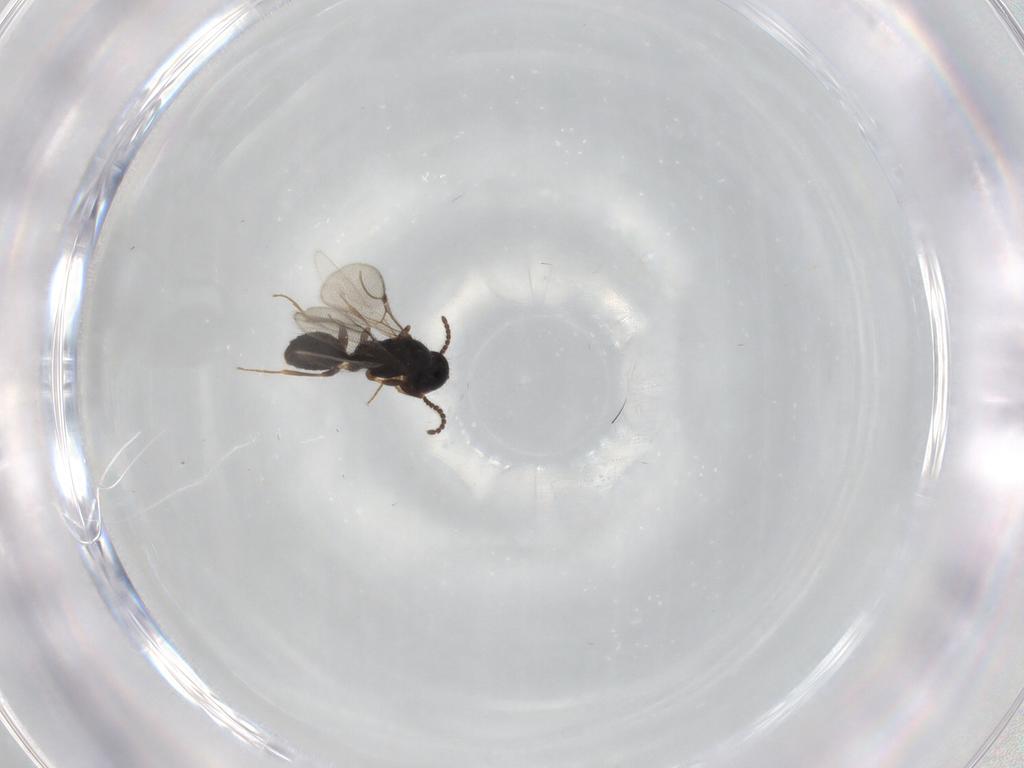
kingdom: Animalia
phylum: Arthropoda
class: Insecta
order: Hymenoptera
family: Bethylidae
